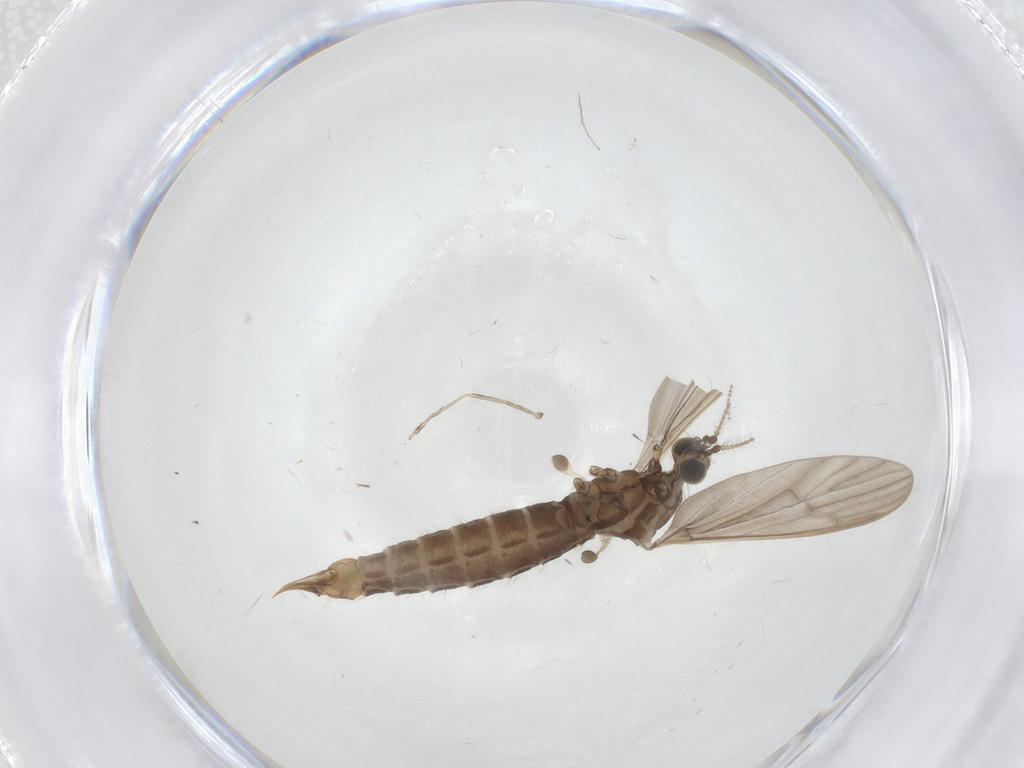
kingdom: Animalia
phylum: Arthropoda
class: Insecta
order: Diptera
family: Limoniidae
